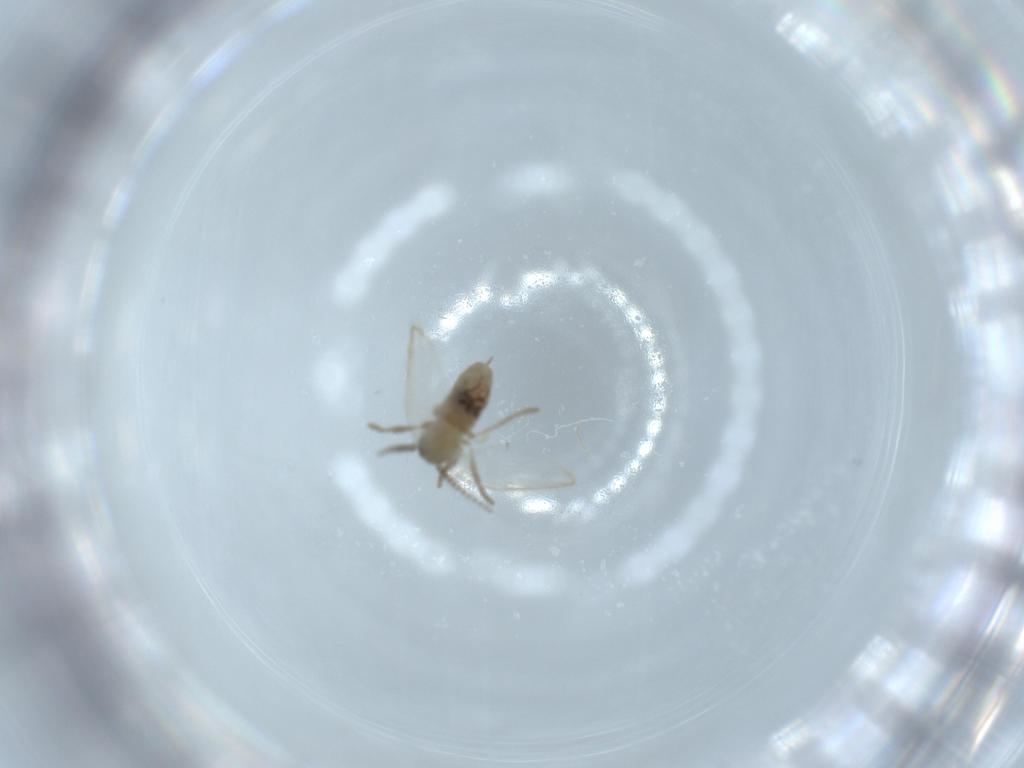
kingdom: Animalia
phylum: Arthropoda
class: Insecta
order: Diptera
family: Psychodidae
